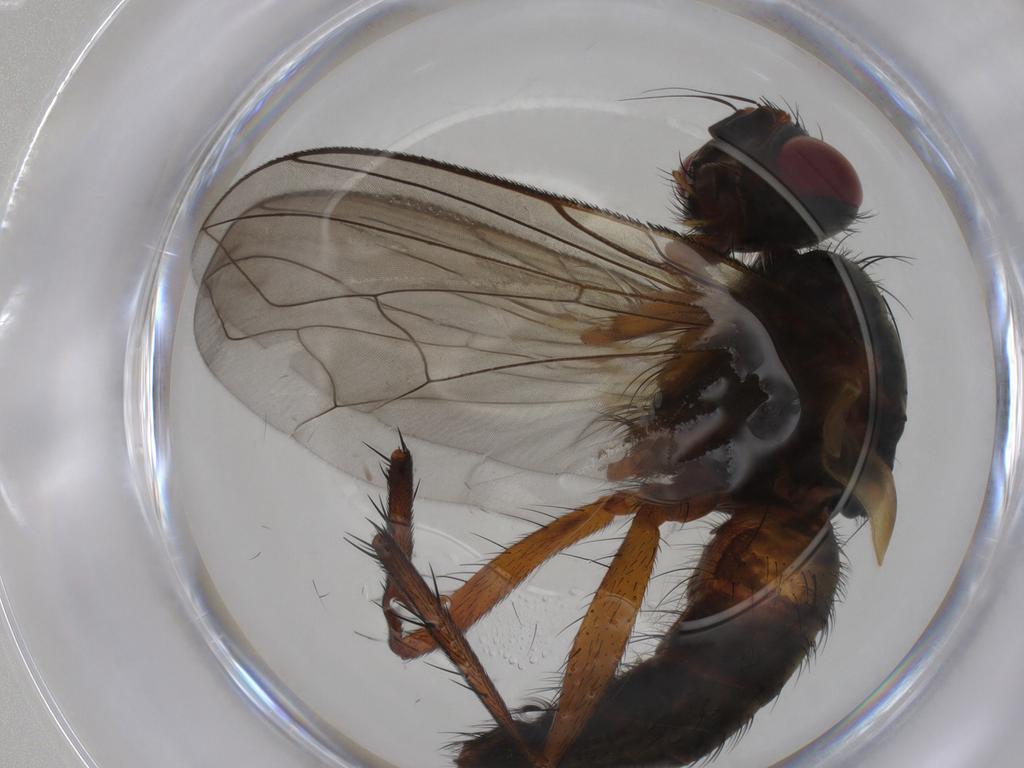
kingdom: Animalia
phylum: Arthropoda
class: Insecta
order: Diptera
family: Tachinidae
